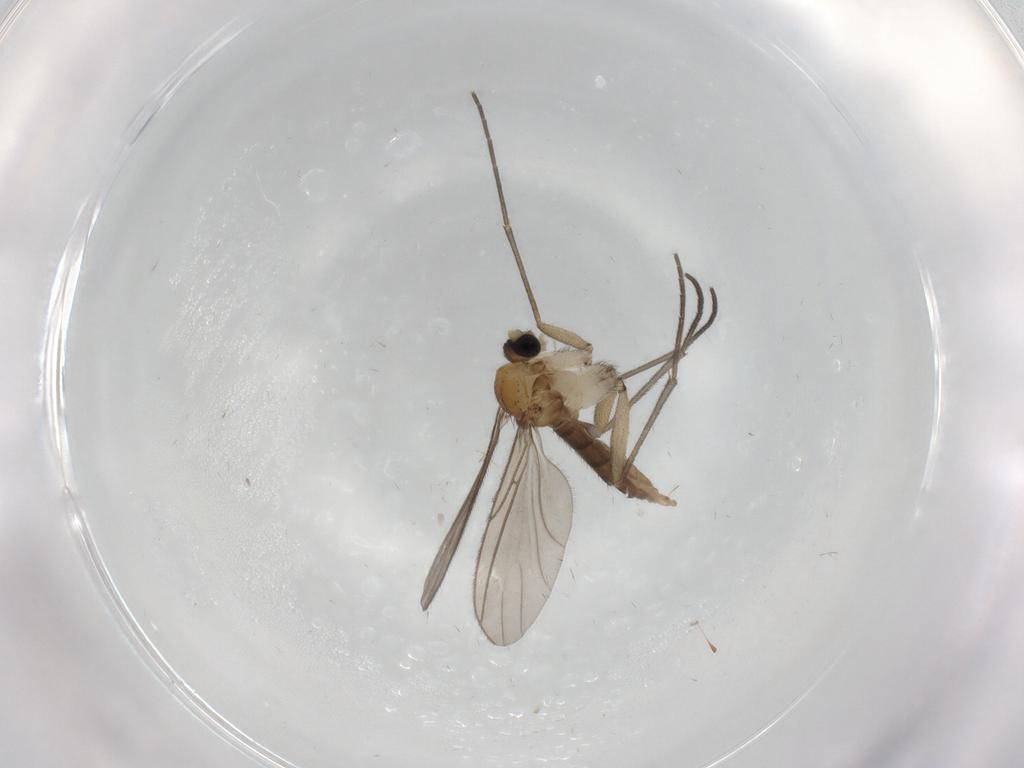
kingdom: Animalia
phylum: Arthropoda
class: Insecta
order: Diptera
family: Sciaridae
